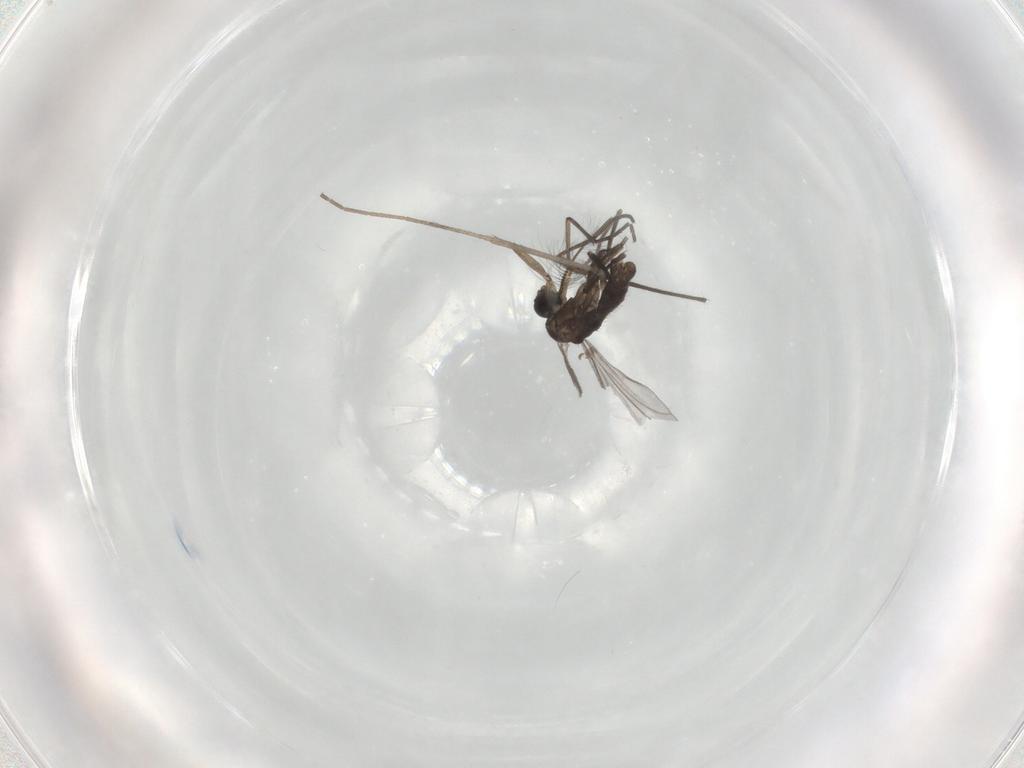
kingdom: Animalia
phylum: Arthropoda
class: Insecta
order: Diptera
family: Sciaridae
